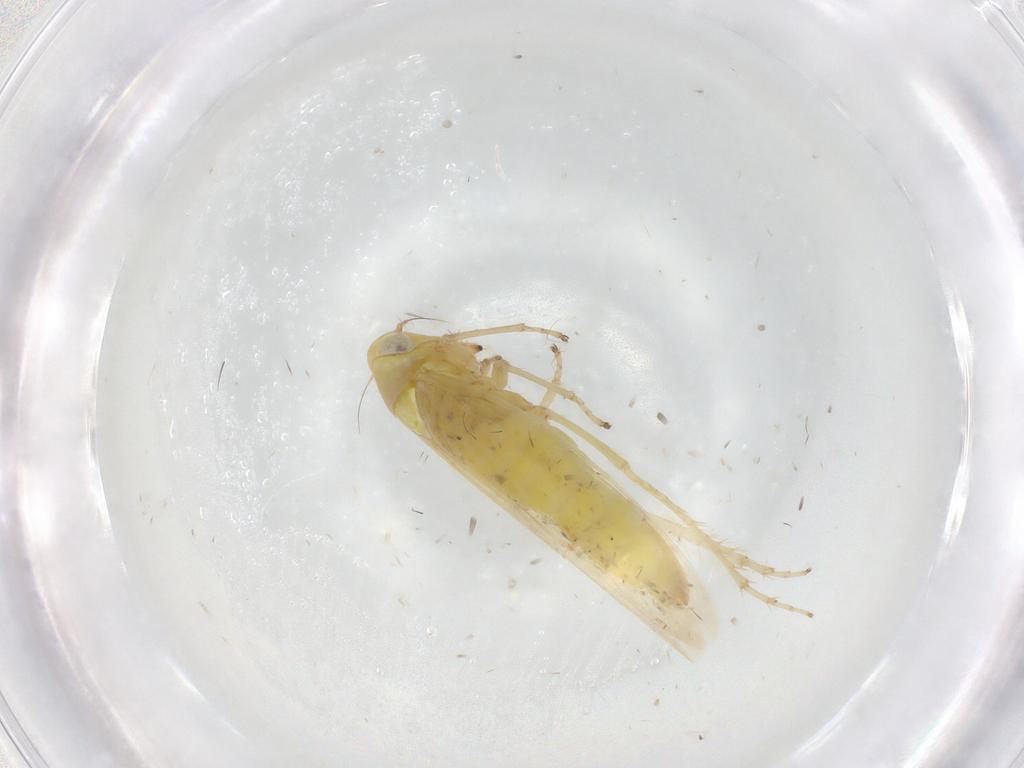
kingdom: Animalia
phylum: Arthropoda
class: Insecta
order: Hemiptera
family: Cicadellidae
